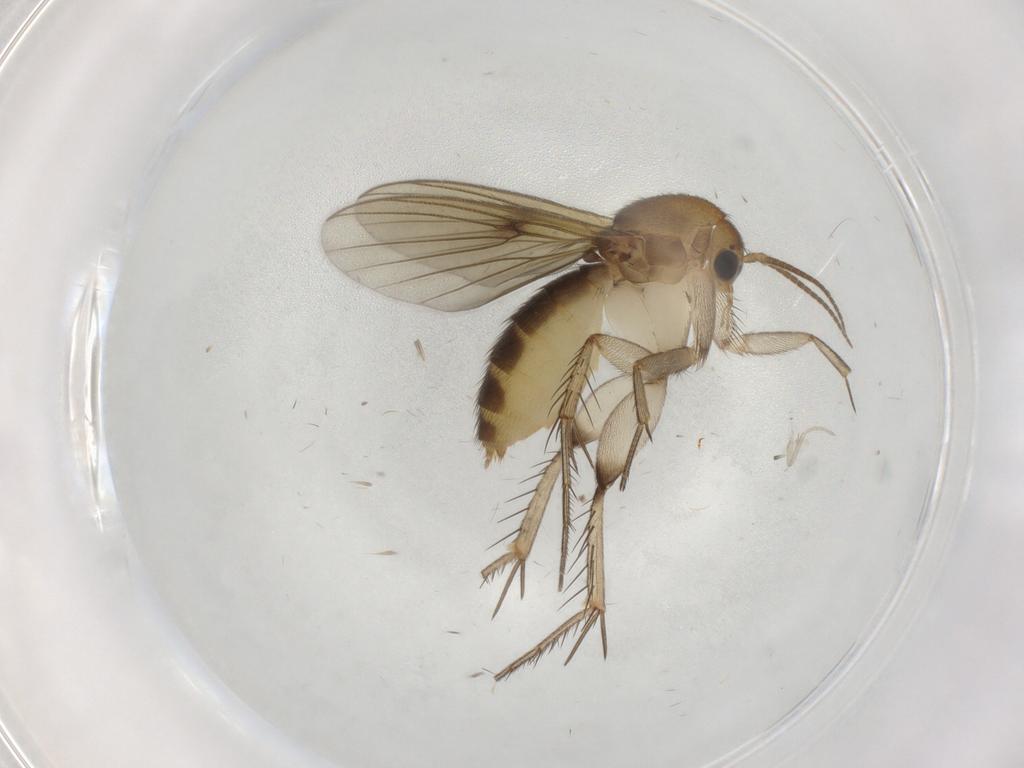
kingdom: Animalia
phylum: Arthropoda
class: Insecta
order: Diptera
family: Mycetophilidae
